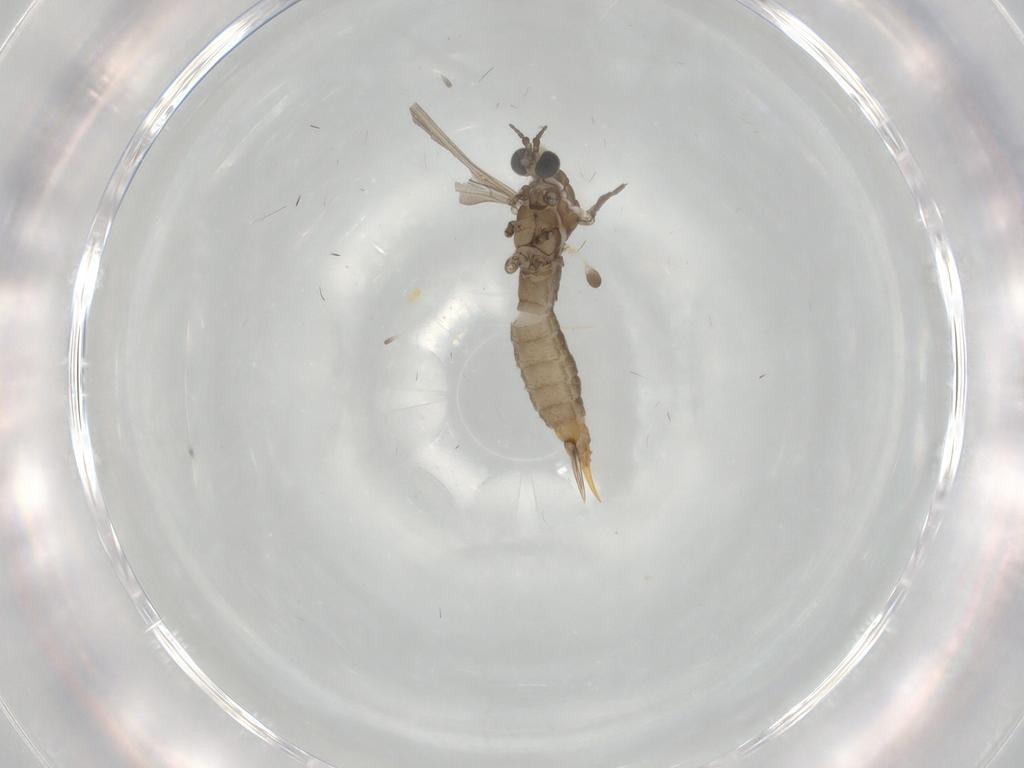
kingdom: Animalia
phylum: Arthropoda
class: Insecta
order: Diptera
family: Limoniidae
